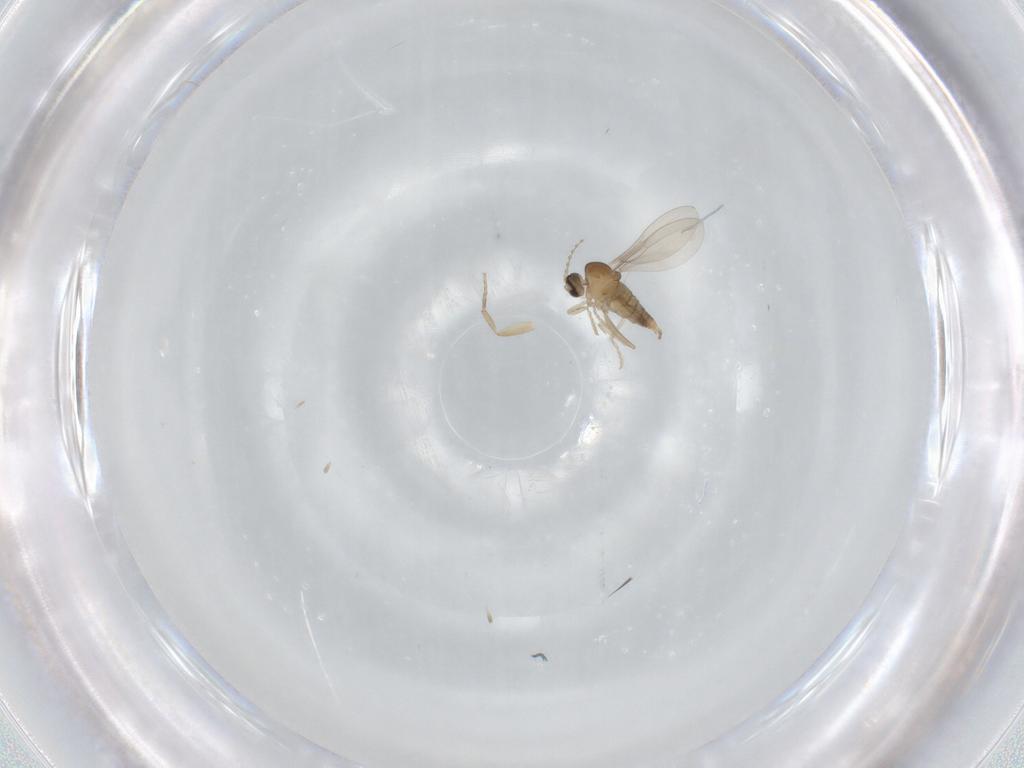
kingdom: Animalia
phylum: Arthropoda
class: Insecta
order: Diptera
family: Cecidomyiidae
